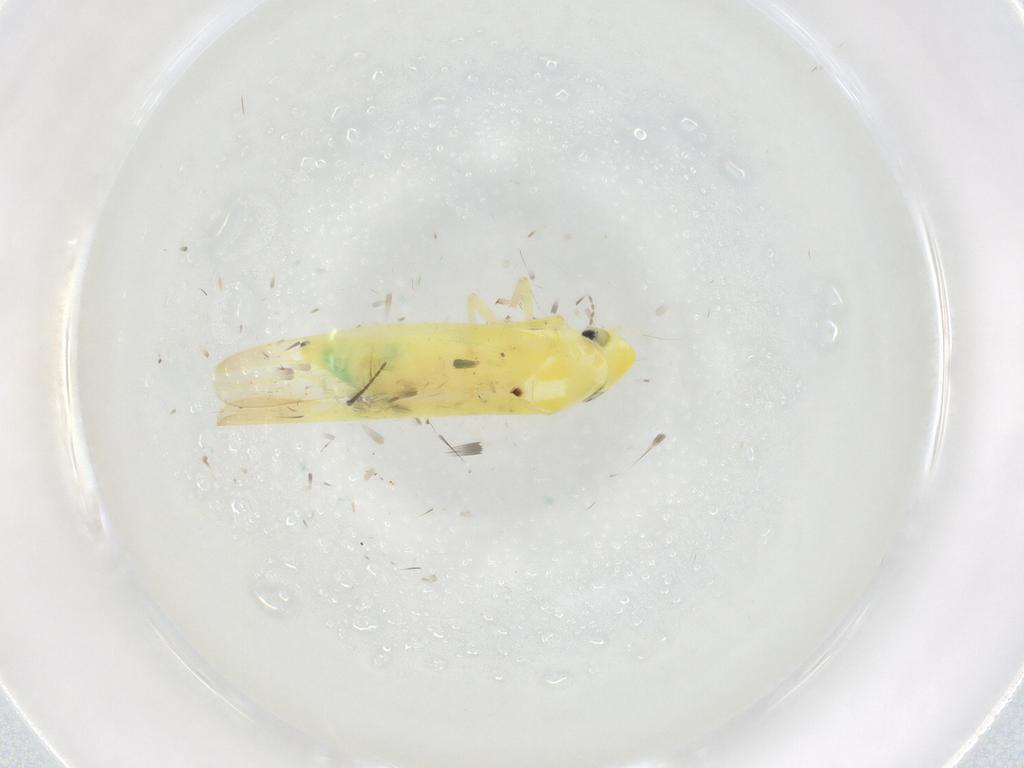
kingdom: Animalia
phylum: Arthropoda
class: Insecta
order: Hemiptera
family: Cicadellidae
